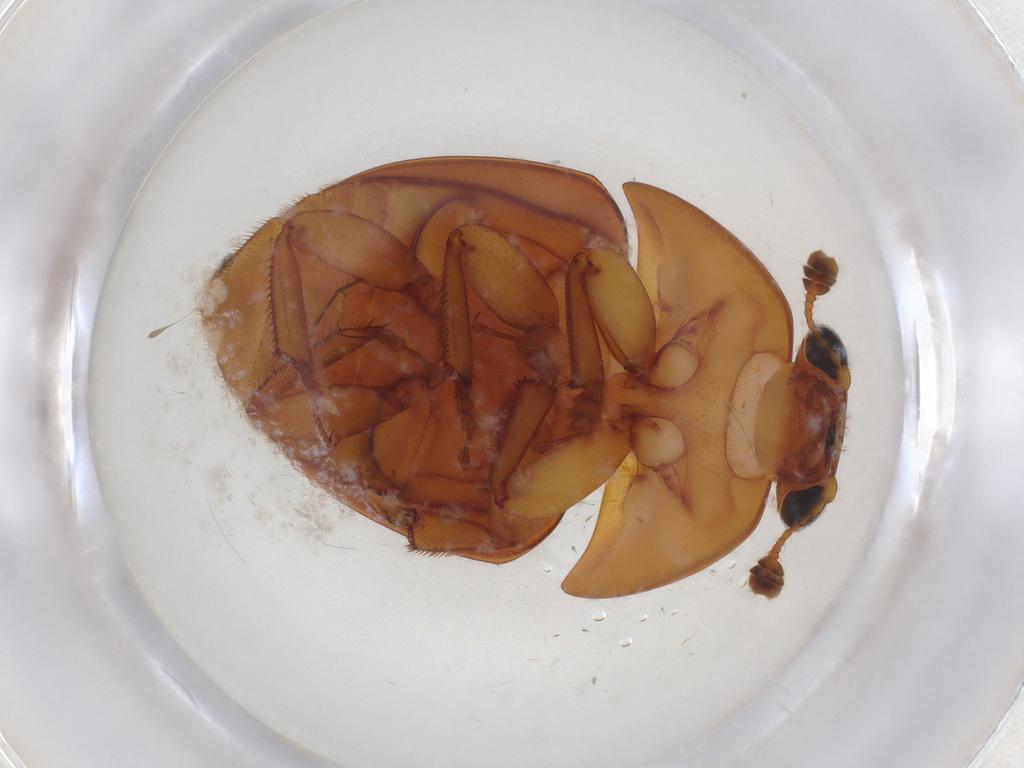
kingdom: Animalia
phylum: Arthropoda
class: Insecta
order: Coleoptera
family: Nitidulidae
